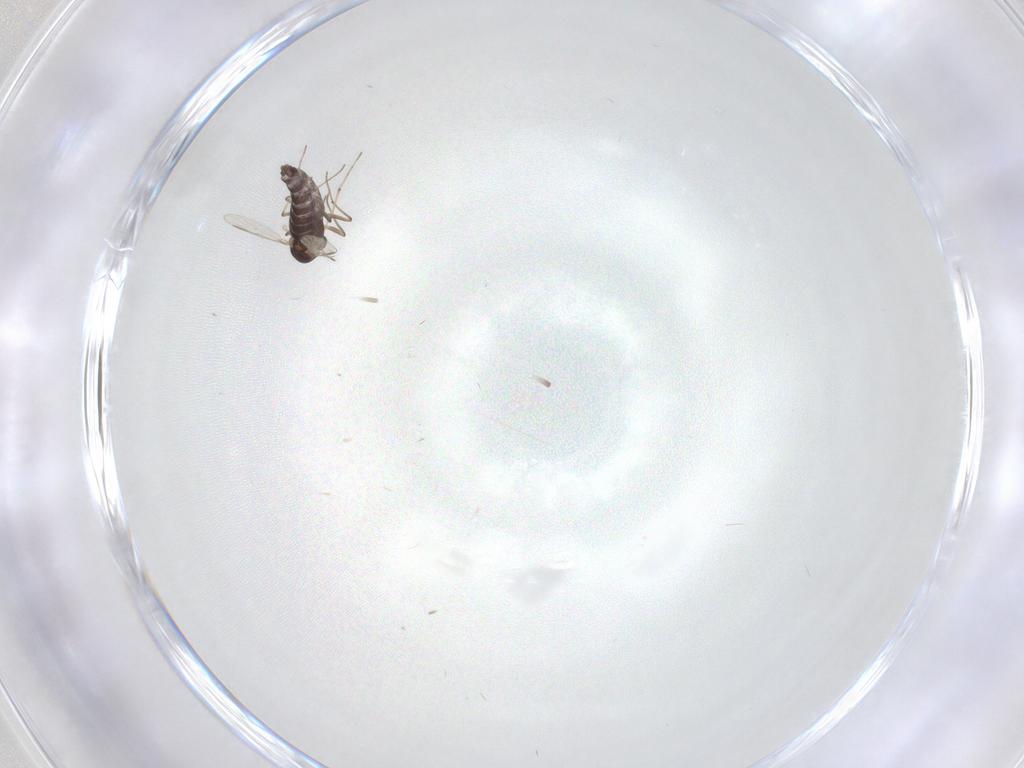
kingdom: Animalia
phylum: Arthropoda
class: Insecta
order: Diptera
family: Chironomidae
